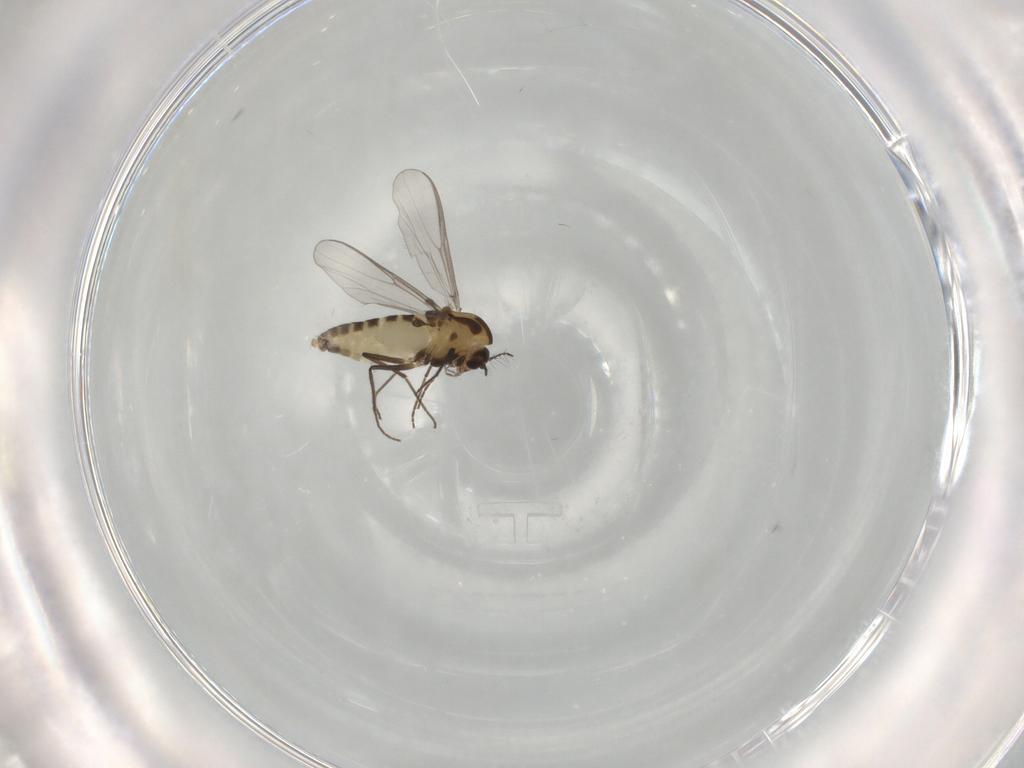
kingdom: Animalia
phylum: Arthropoda
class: Insecta
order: Diptera
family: Chironomidae
